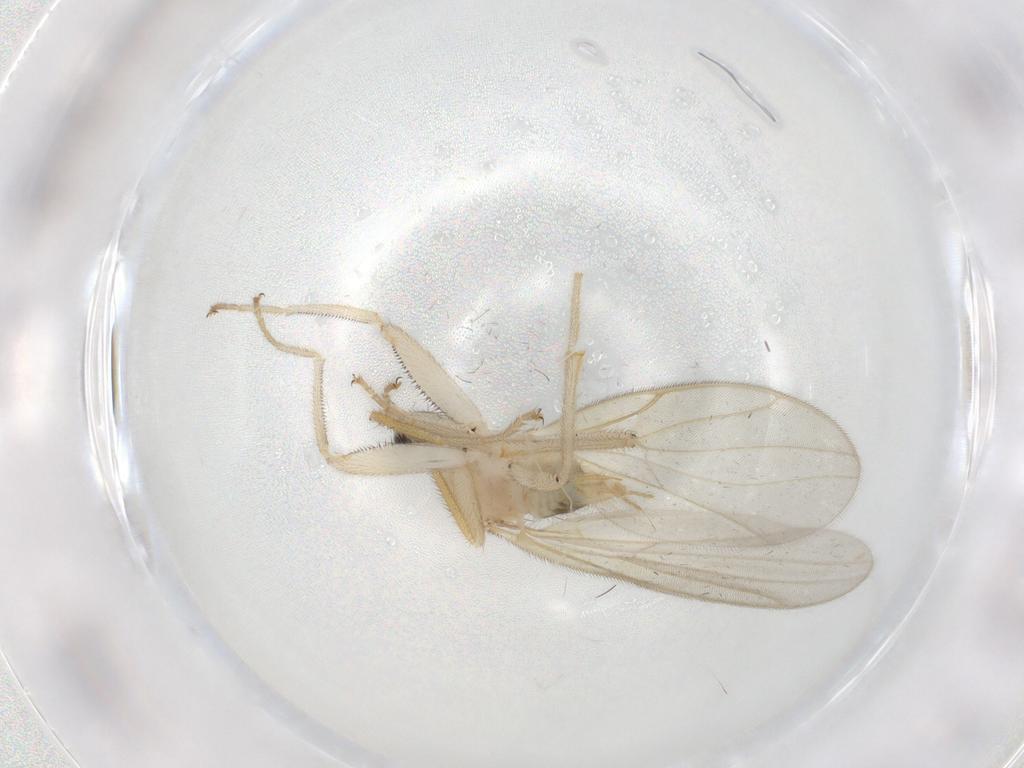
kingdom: Animalia
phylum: Arthropoda
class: Insecta
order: Diptera
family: Hybotidae
